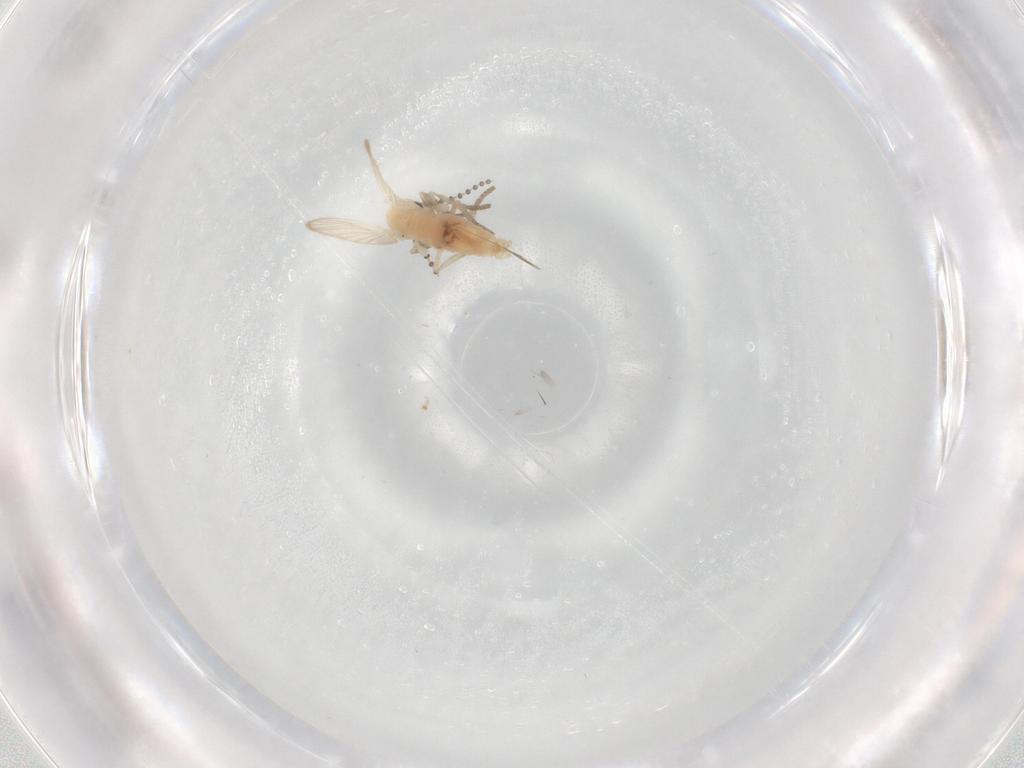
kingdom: Animalia
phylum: Arthropoda
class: Insecta
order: Diptera
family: Psychodidae
